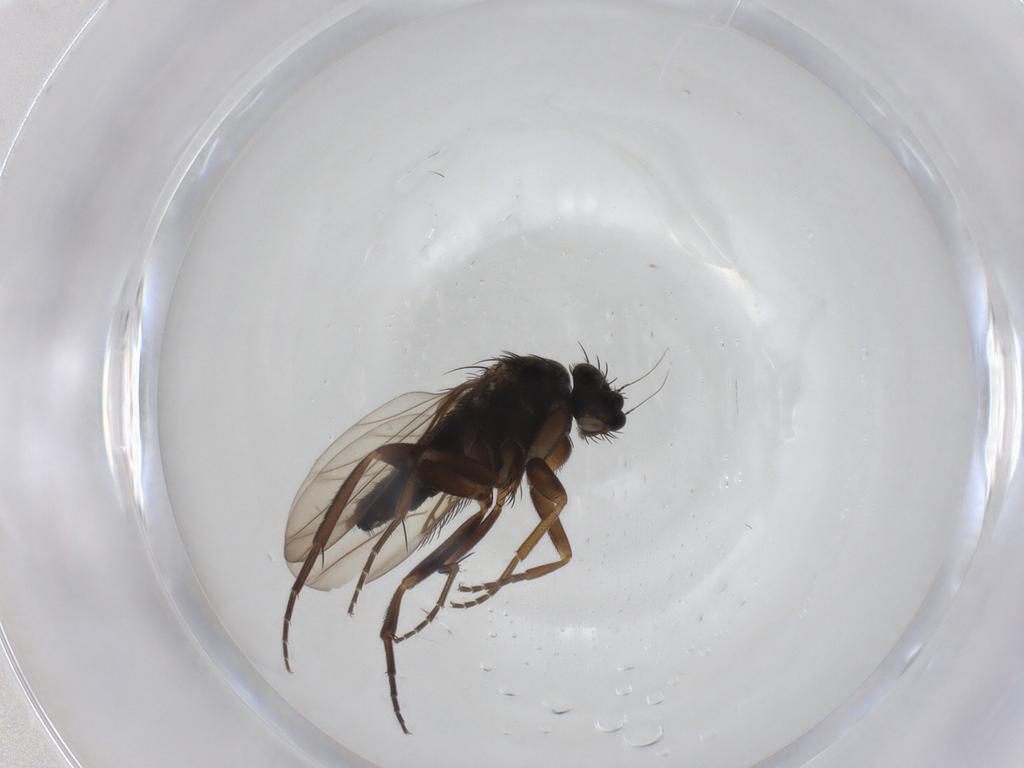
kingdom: Animalia
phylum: Arthropoda
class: Insecta
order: Diptera
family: Phoridae
